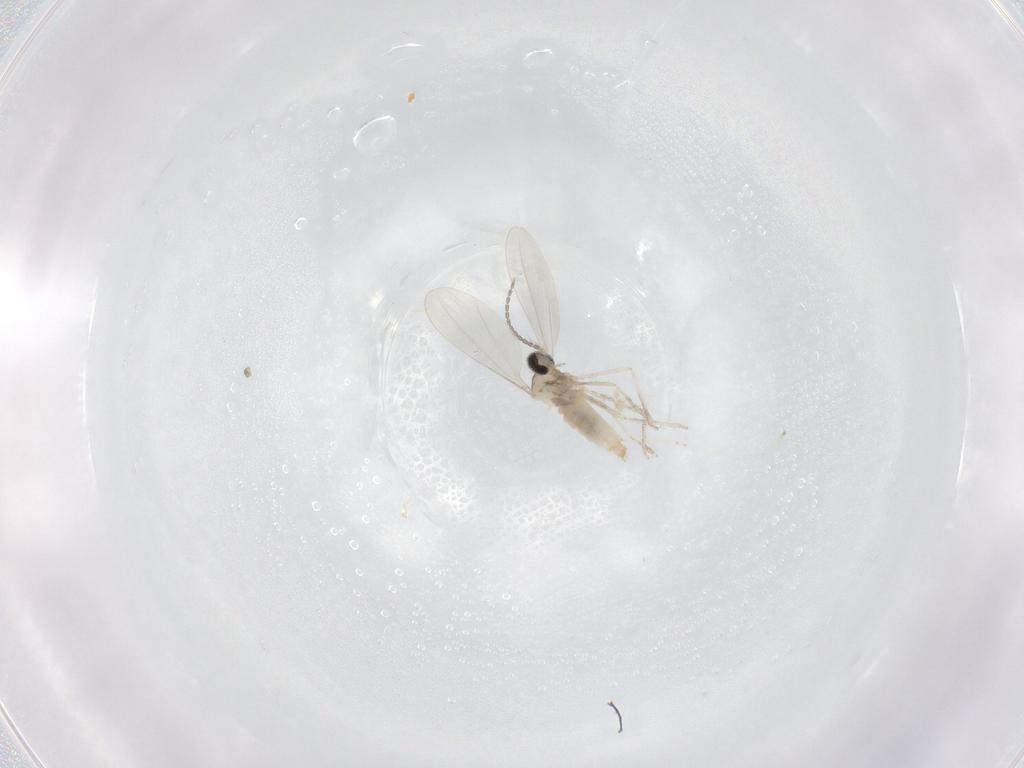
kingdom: Animalia
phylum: Arthropoda
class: Insecta
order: Diptera
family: Cecidomyiidae
